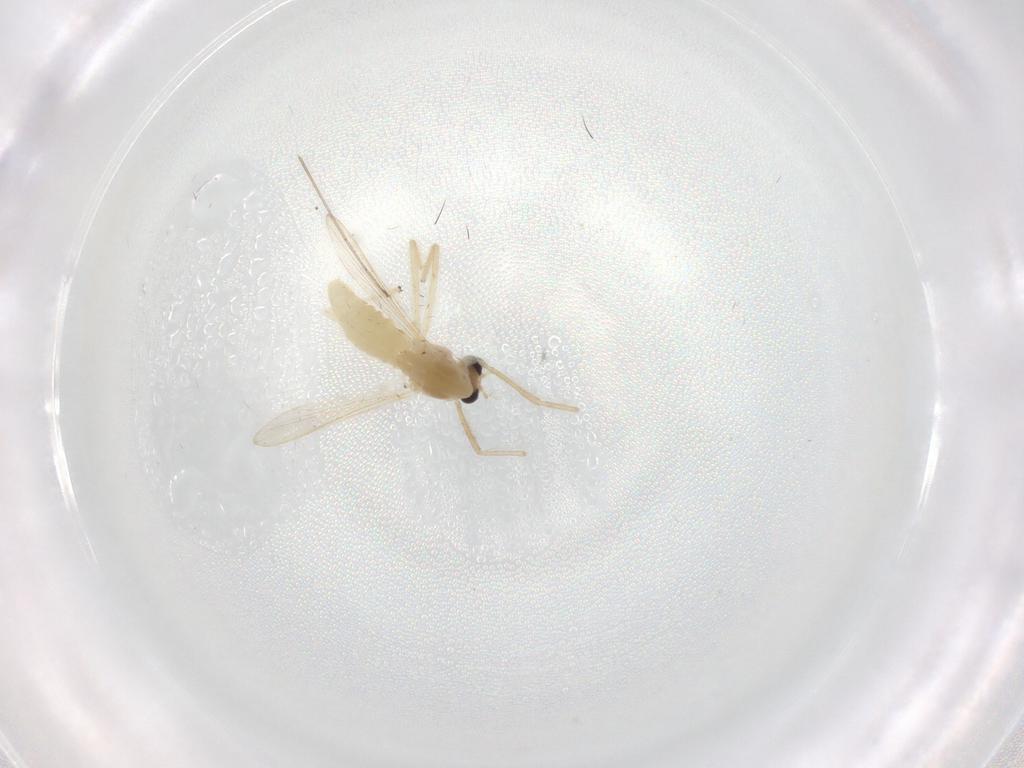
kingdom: Animalia
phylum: Arthropoda
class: Insecta
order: Diptera
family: Chironomidae
